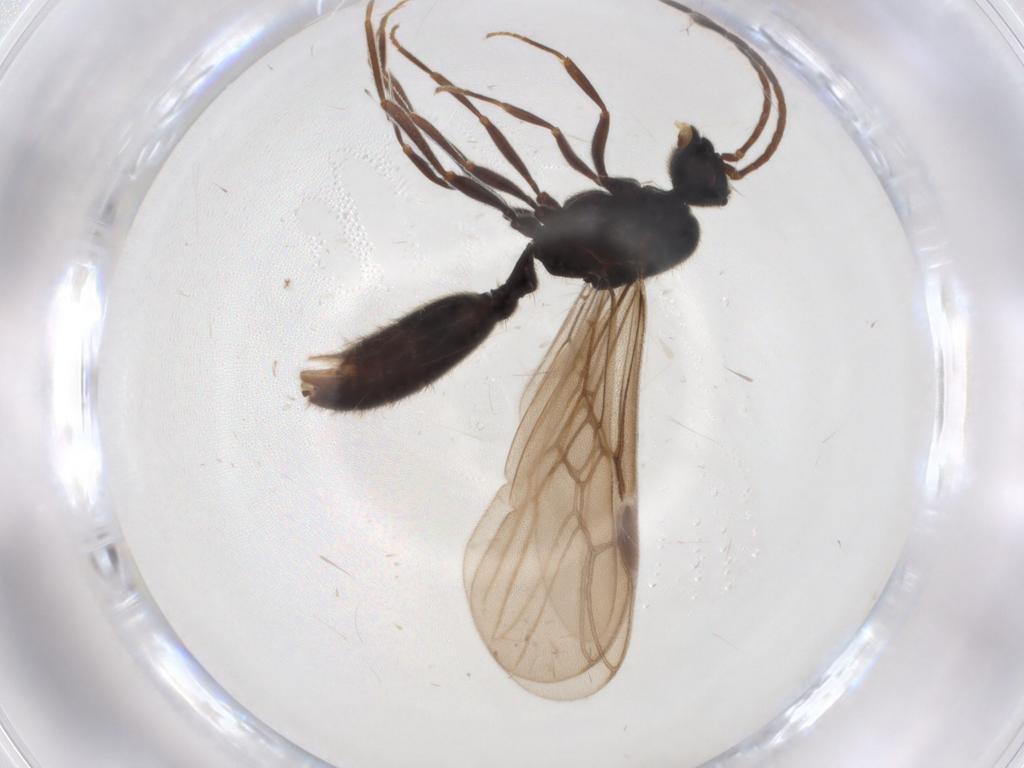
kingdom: Animalia
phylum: Arthropoda
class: Insecta
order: Hymenoptera
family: Formicidae
